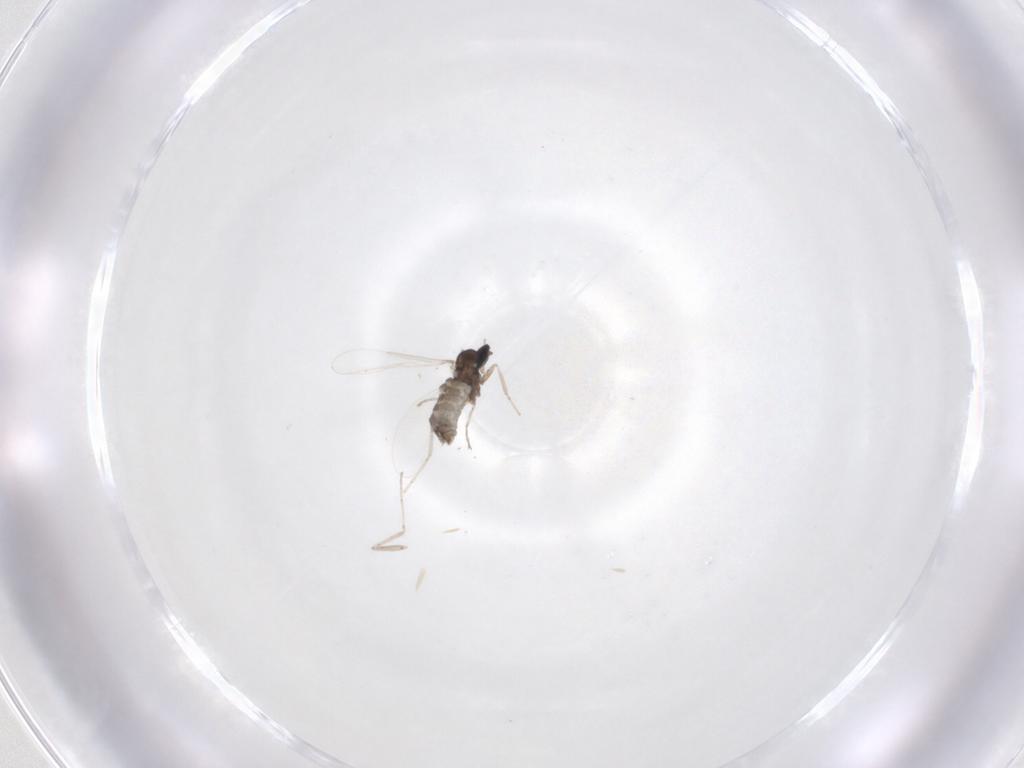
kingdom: Animalia
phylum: Arthropoda
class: Insecta
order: Diptera
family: Cecidomyiidae
